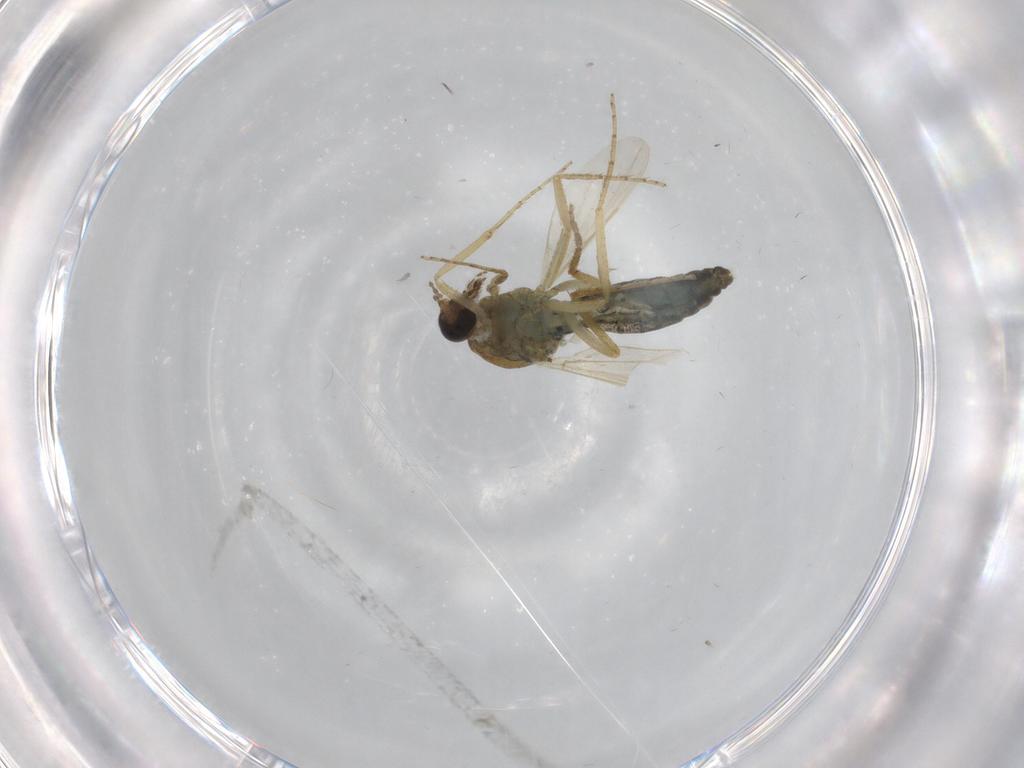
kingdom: Animalia
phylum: Arthropoda
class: Insecta
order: Diptera
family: Ceratopogonidae
